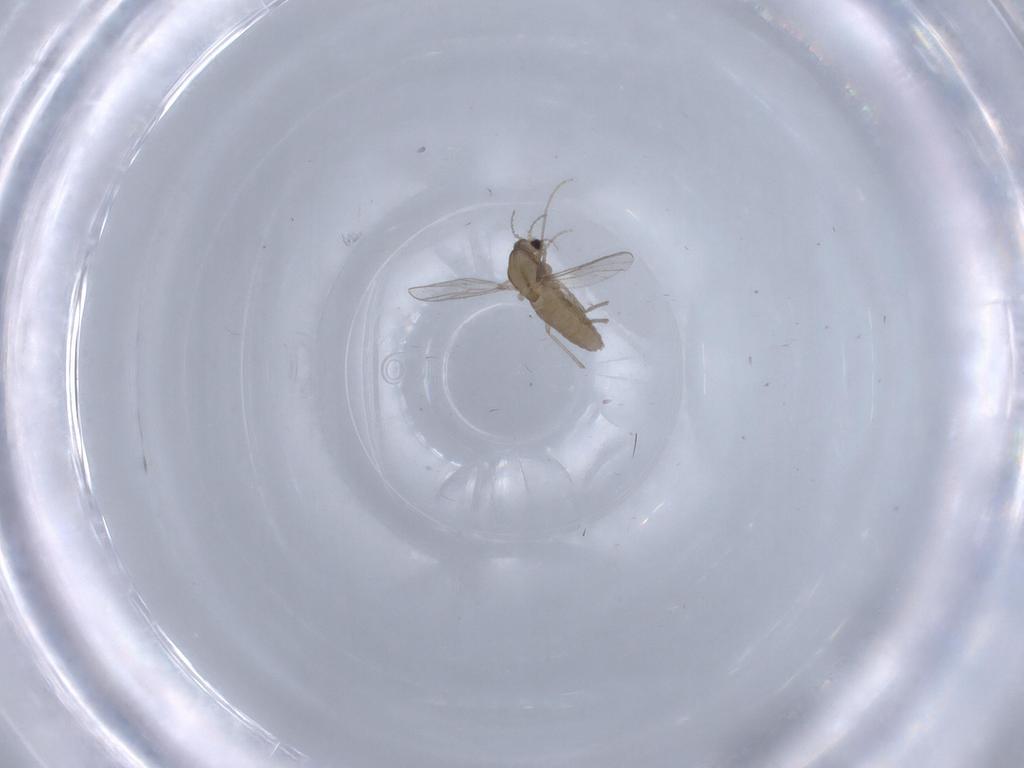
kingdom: Animalia
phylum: Arthropoda
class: Insecta
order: Diptera
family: Chironomidae
